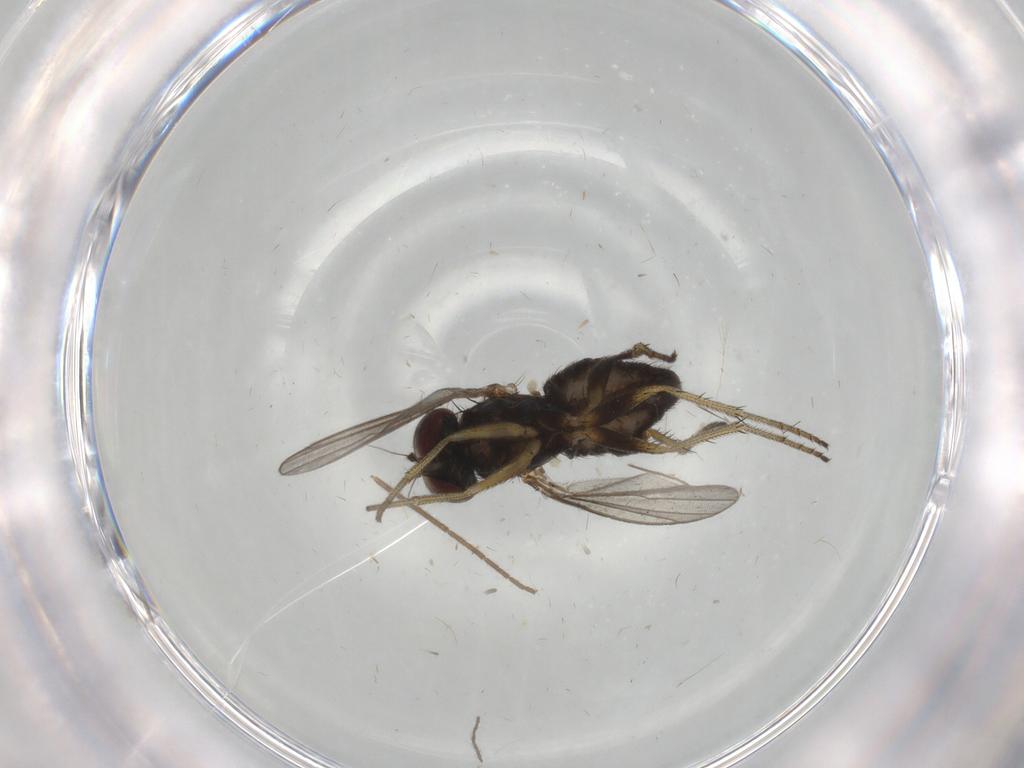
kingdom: Animalia
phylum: Arthropoda
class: Insecta
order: Diptera
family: Chironomidae
